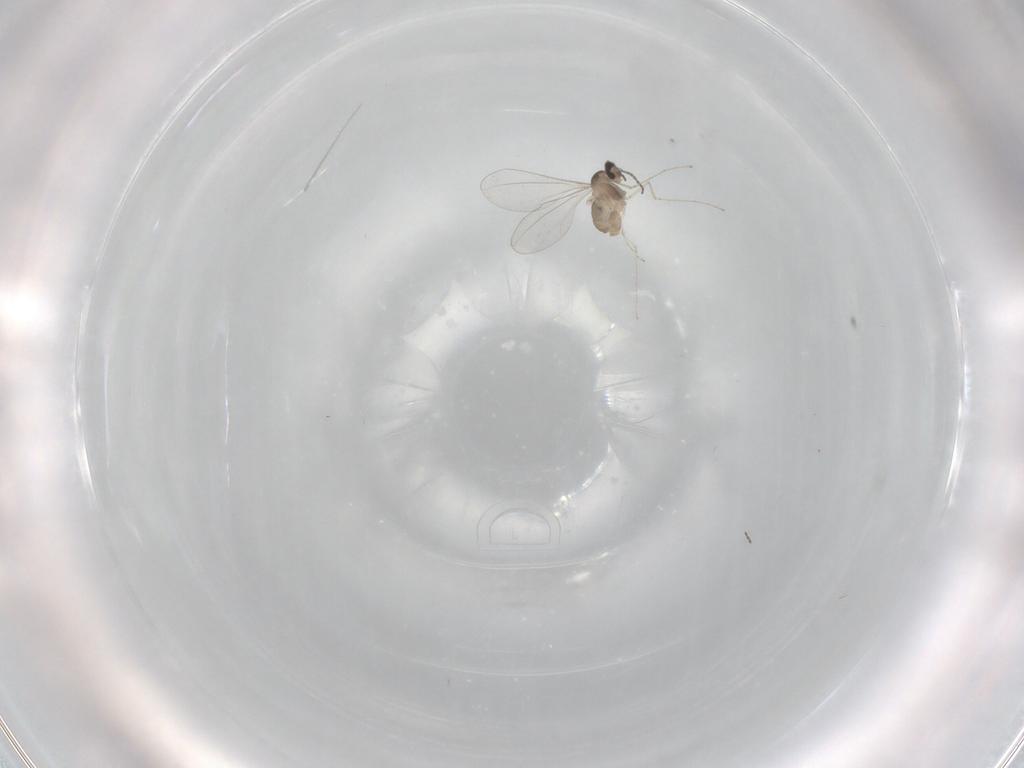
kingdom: Animalia
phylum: Arthropoda
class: Insecta
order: Diptera
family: Cecidomyiidae
